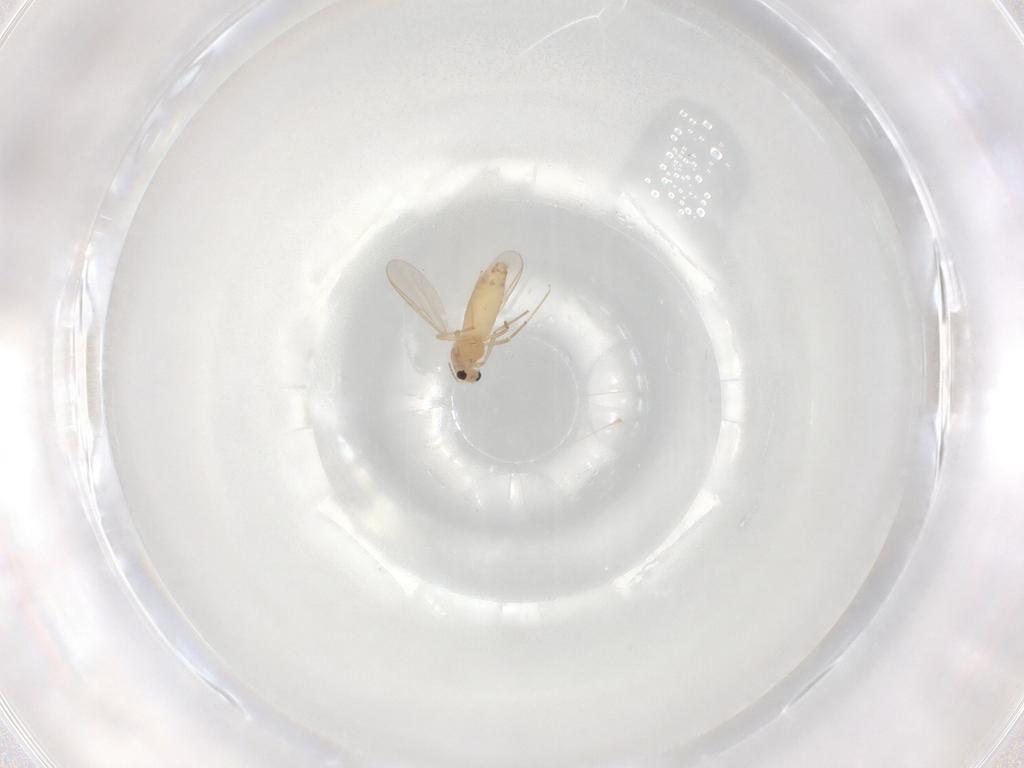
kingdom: Animalia
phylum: Arthropoda
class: Insecta
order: Diptera
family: Chironomidae
